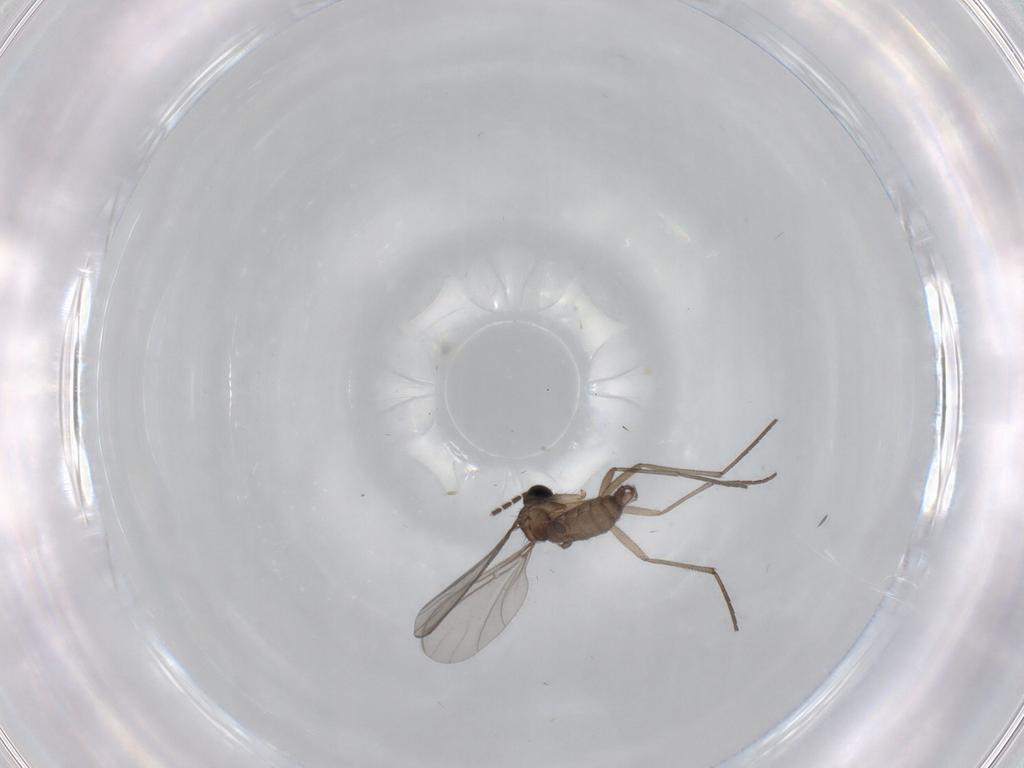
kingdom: Animalia
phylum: Arthropoda
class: Insecta
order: Diptera
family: Sciaridae
